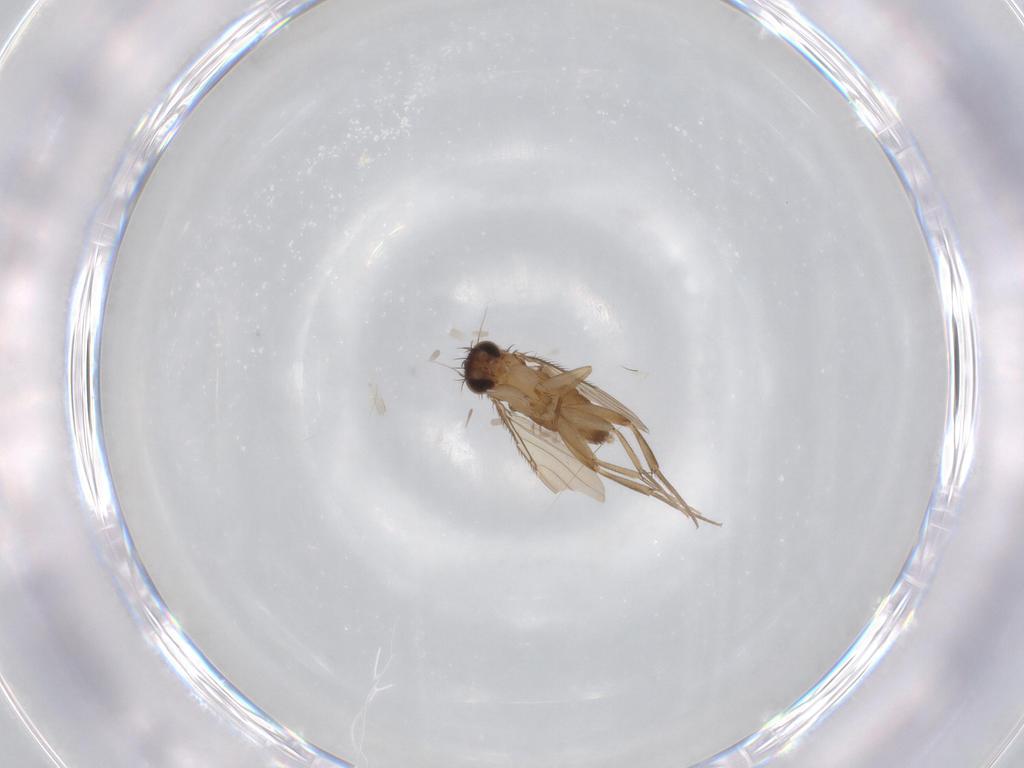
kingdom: Animalia
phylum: Arthropoda
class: Insecta
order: Diptera
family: Phoridae
